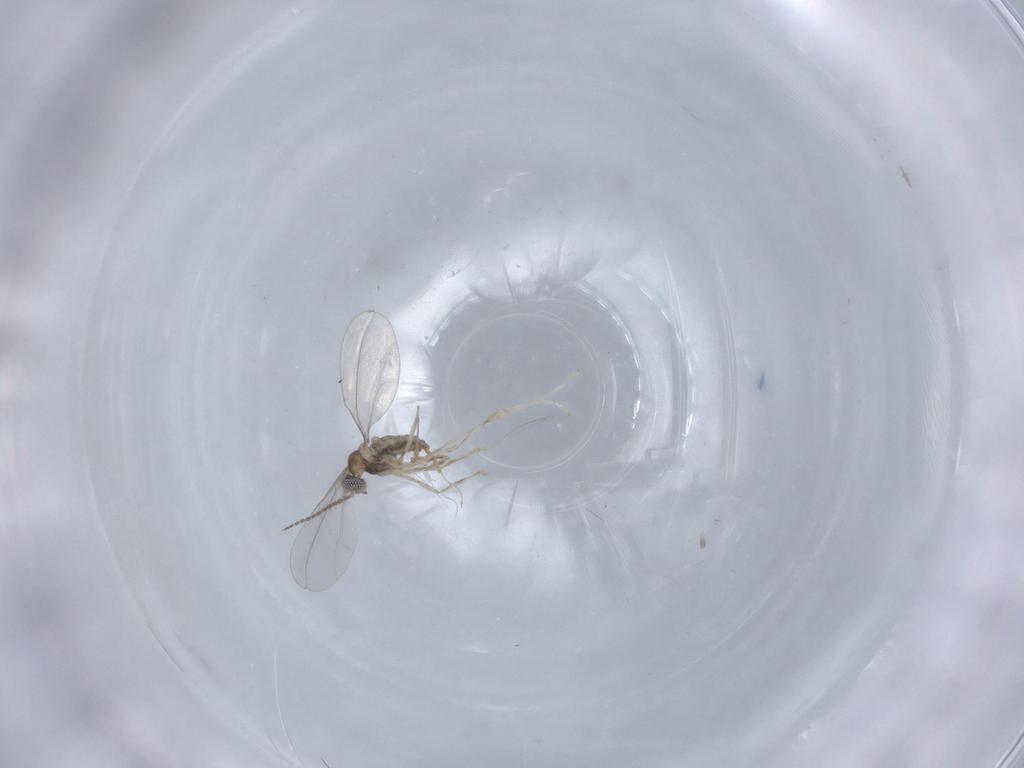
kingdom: Animalia
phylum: Arthropoda
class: Insecta
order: Diptera
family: Cecidomyiidae
